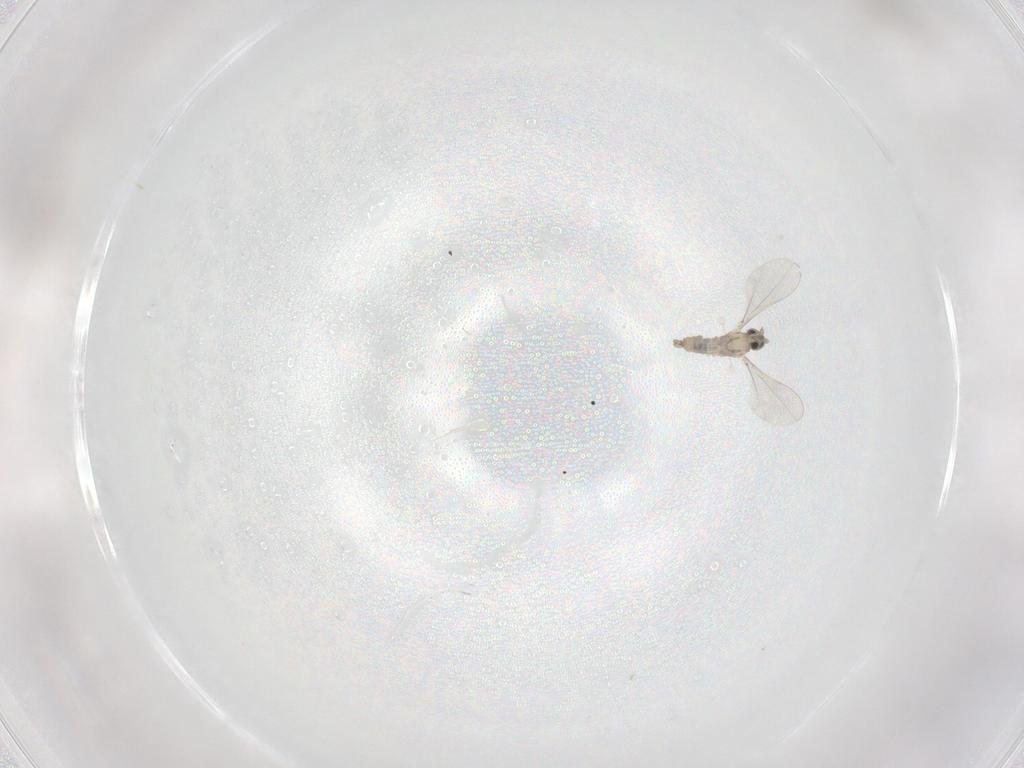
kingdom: Animalia
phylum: Arthropoda
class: Insecta
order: Diptera
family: Cecidomyiidae
